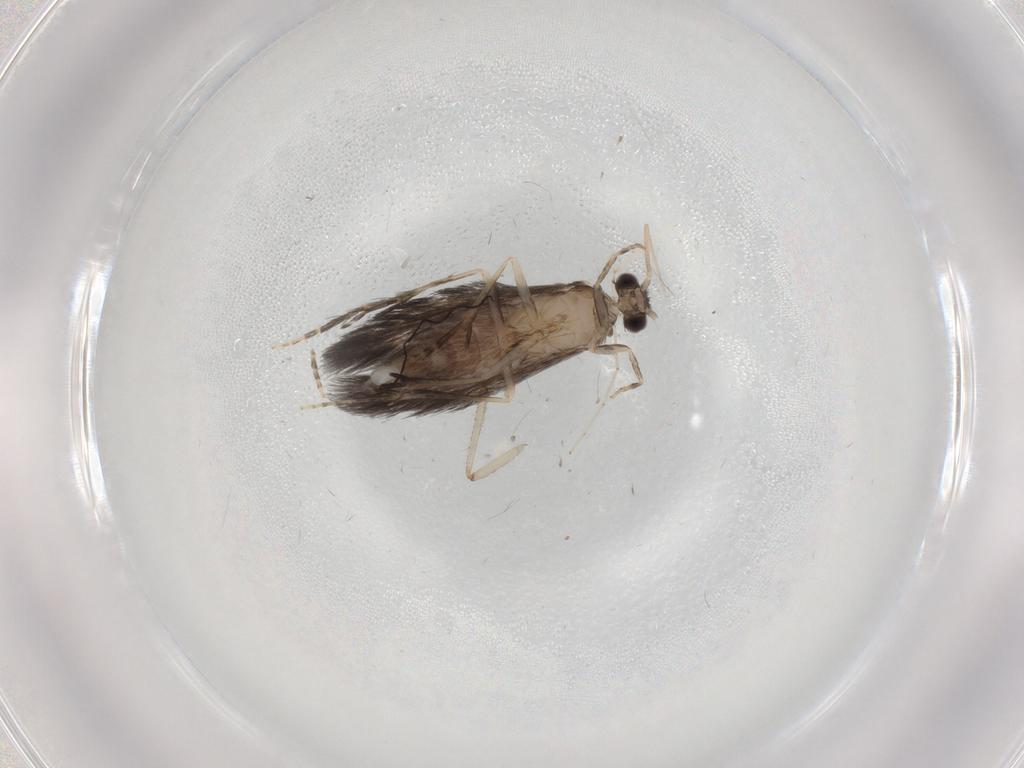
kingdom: Animalia
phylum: Arthropoda
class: Insecta
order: Trichoptera
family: Hydroptilidae
